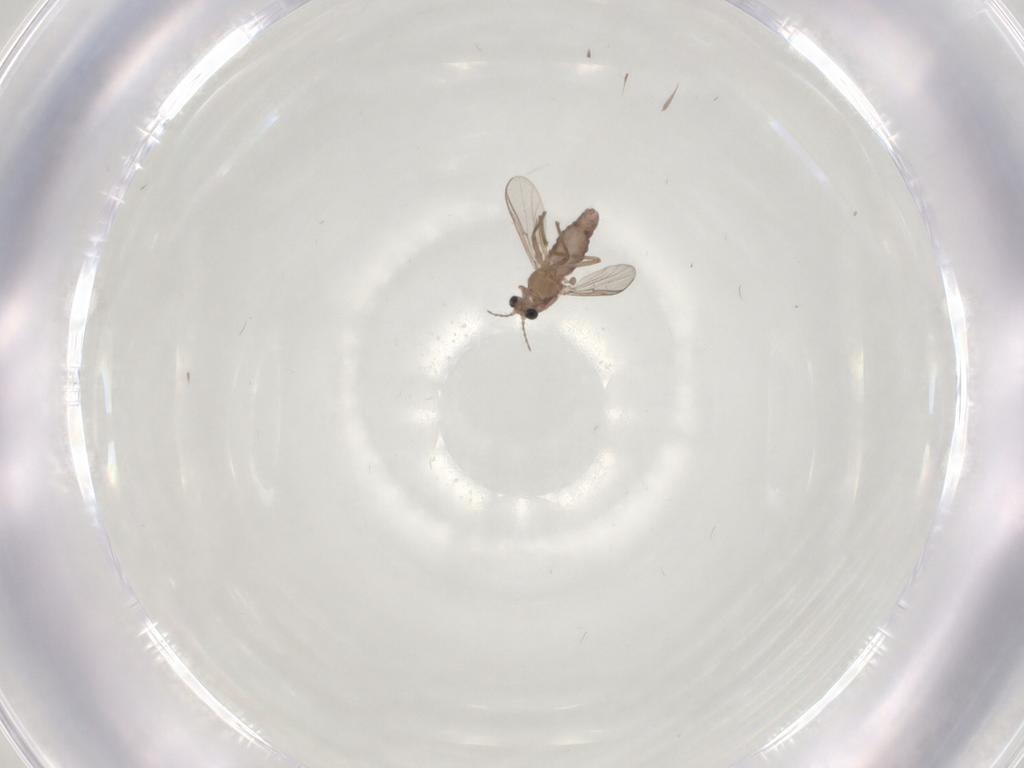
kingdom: Animalia
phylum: Arthropoda
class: Insecta
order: Diptera
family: Chironomidae
